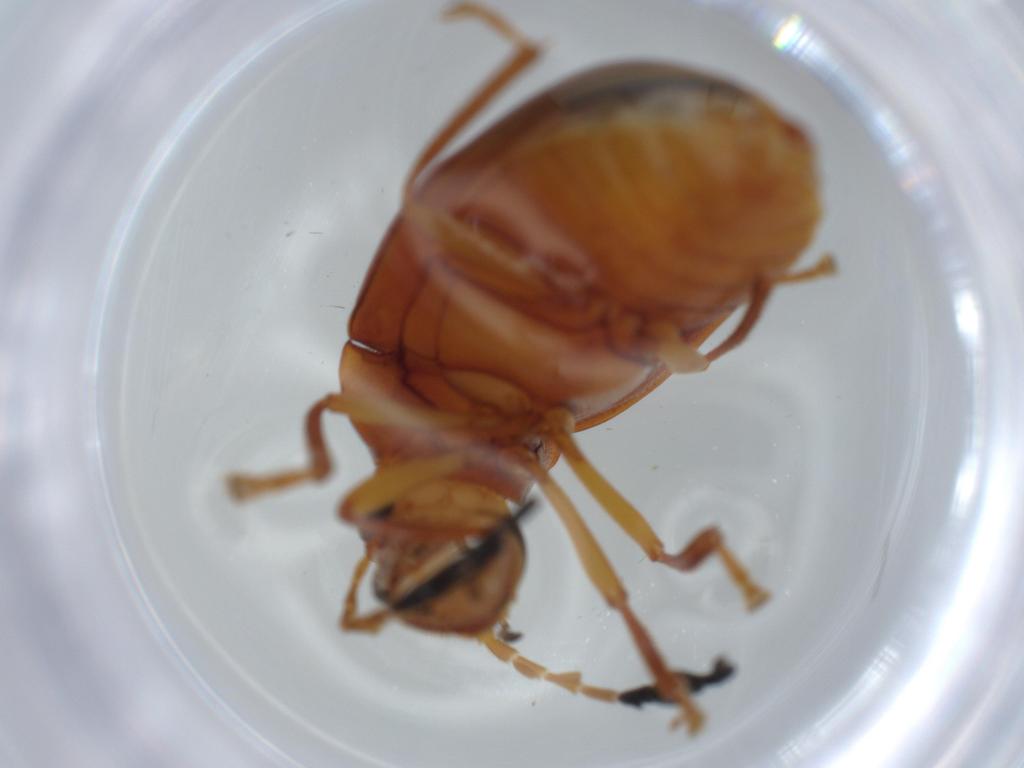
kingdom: Animalia
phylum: Arthropoda
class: Insecta
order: Coleoptera
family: Ptilodactylidae
